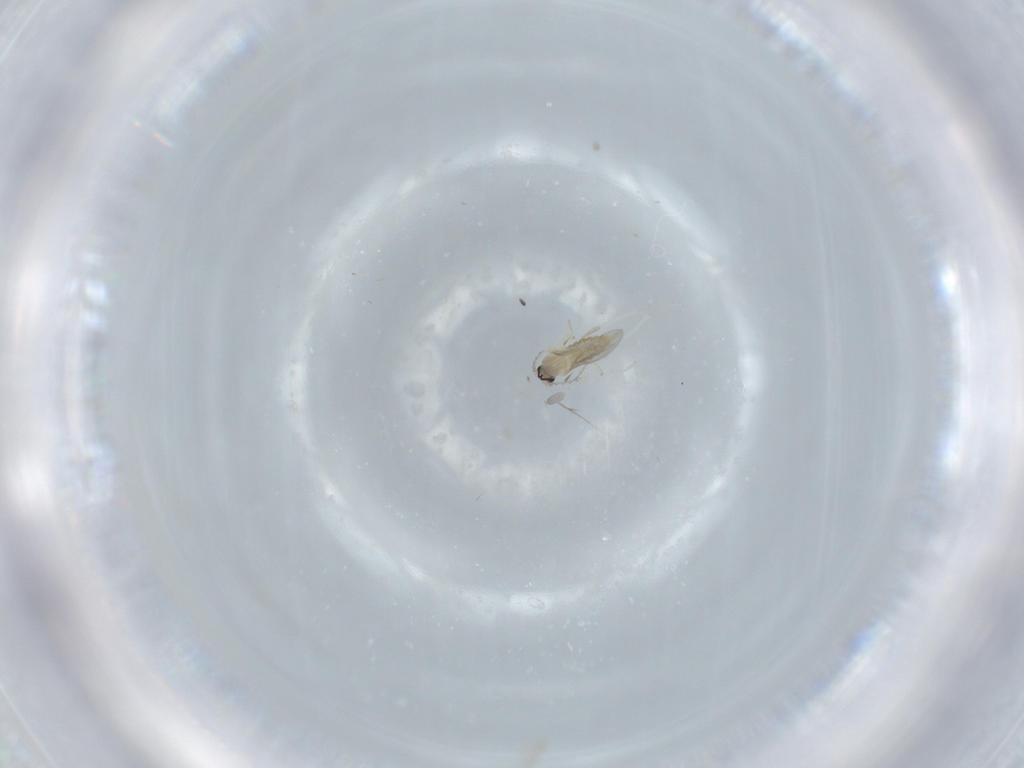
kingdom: Animalia
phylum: Arthropoda
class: Insecta
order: Diptera
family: Cecidomyiidae
